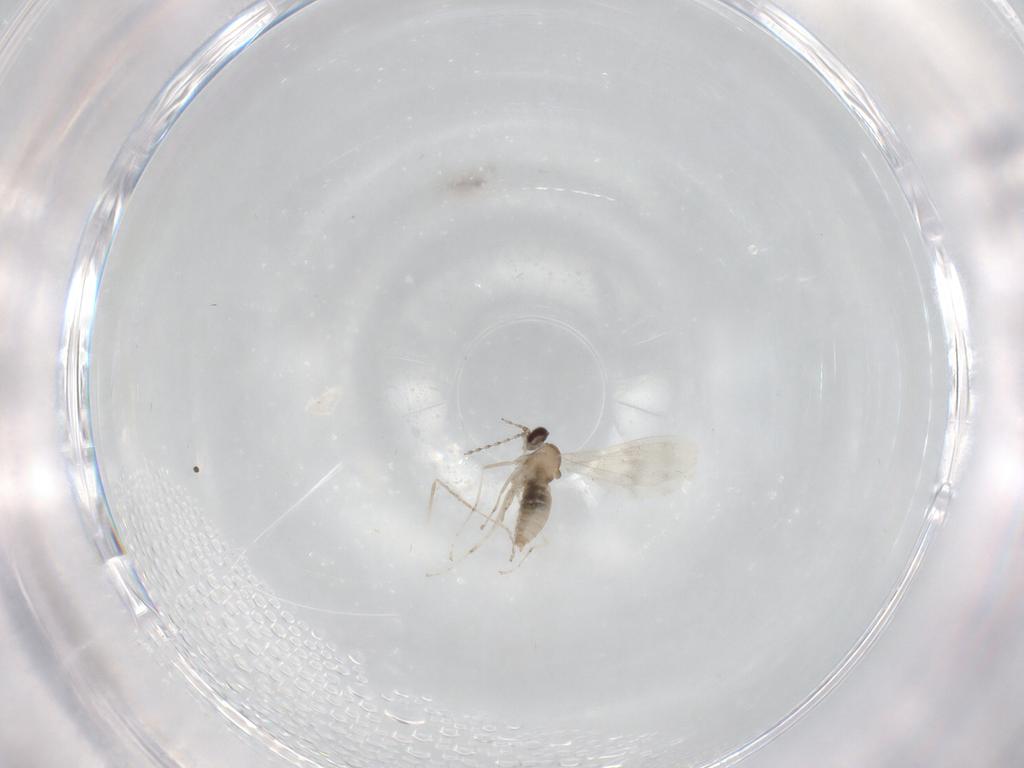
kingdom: Animalia
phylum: Arthropoda
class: Insecta
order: Diptera
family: Cecidomyiidae
